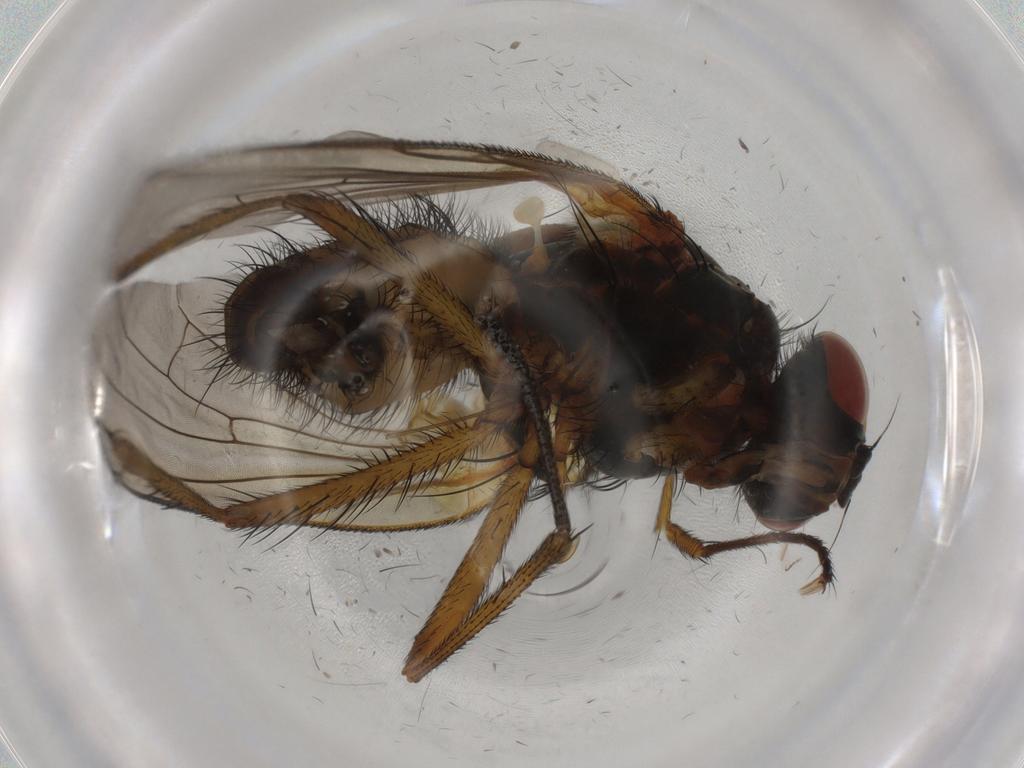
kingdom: Animalia
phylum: Arthropoda
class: Insecta
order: Diptera
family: Anthomyiidae
